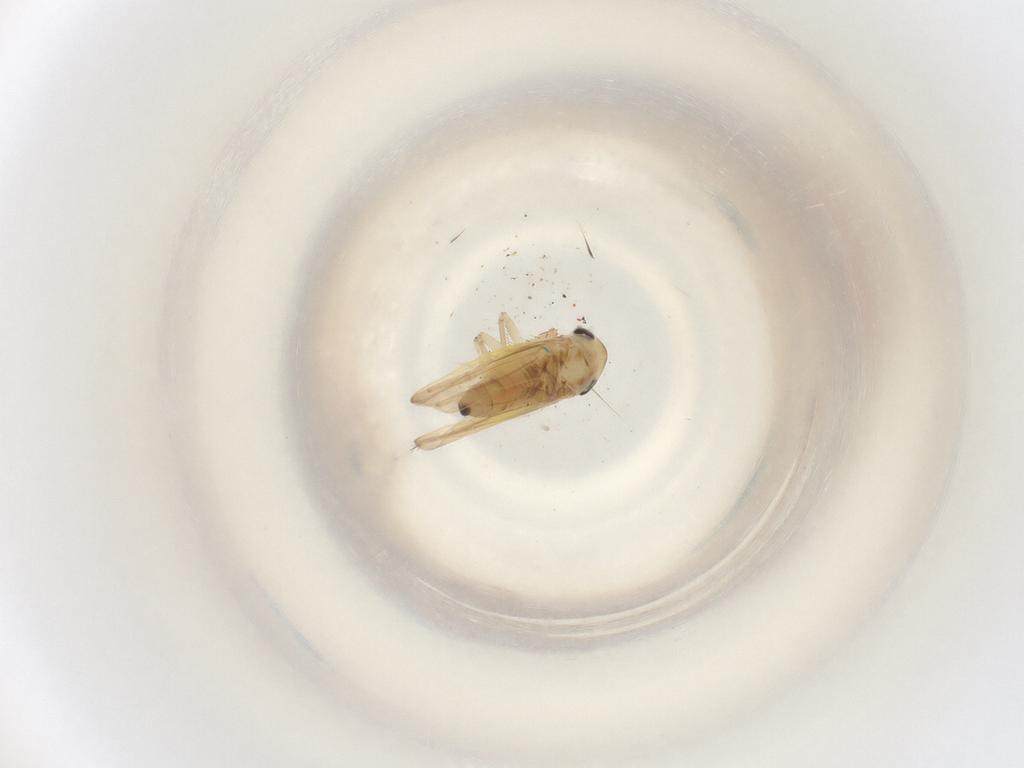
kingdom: Animalia
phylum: Arthropoda
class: Insecta
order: Hemiptera
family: Cicadellidae
